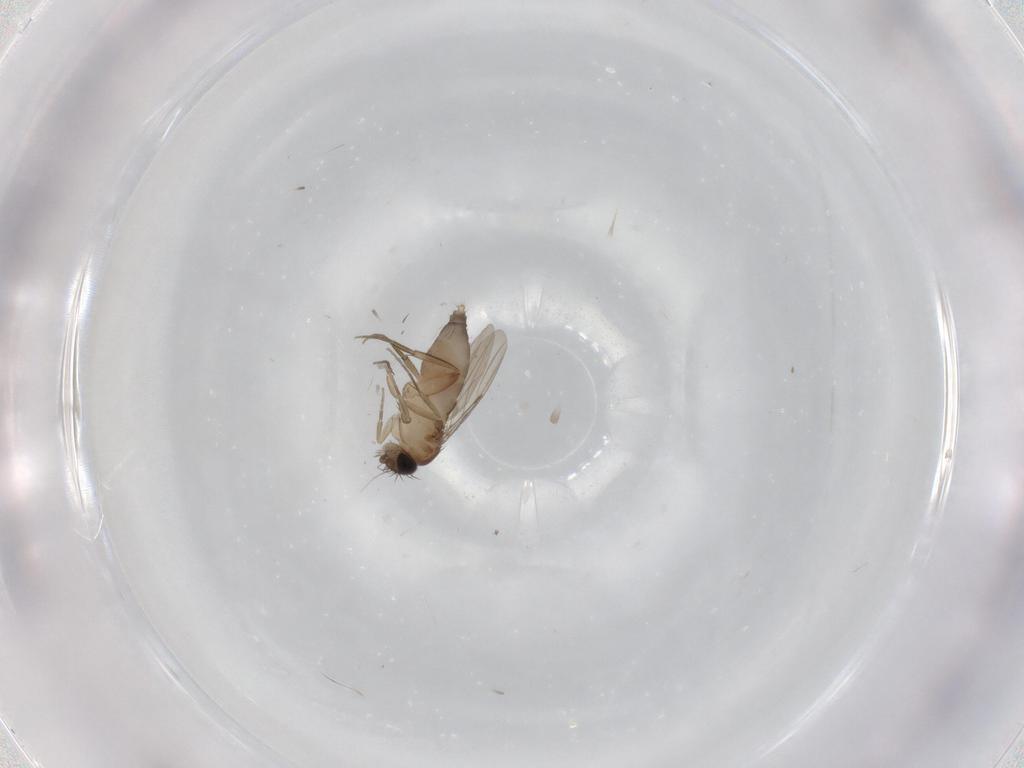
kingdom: Animalia
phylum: Arthropoda
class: Insecta
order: Diptera
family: Phoridae
